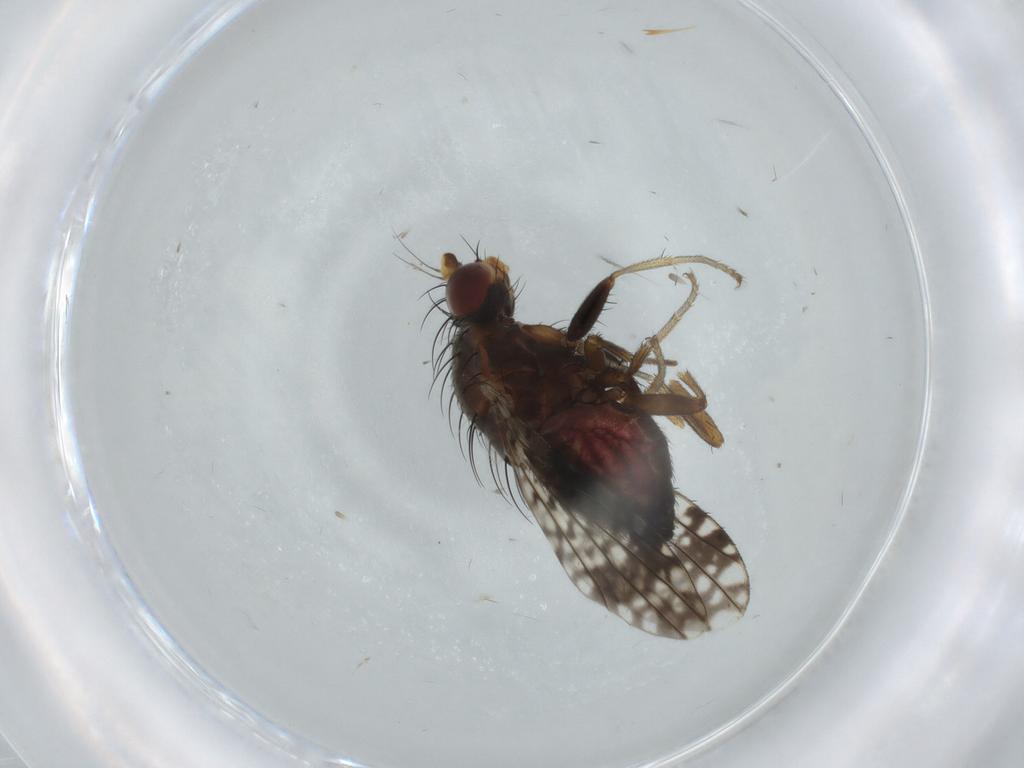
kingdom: Animalia
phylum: Arthropoda
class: Insecta
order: Diptera
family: Tephritidae
